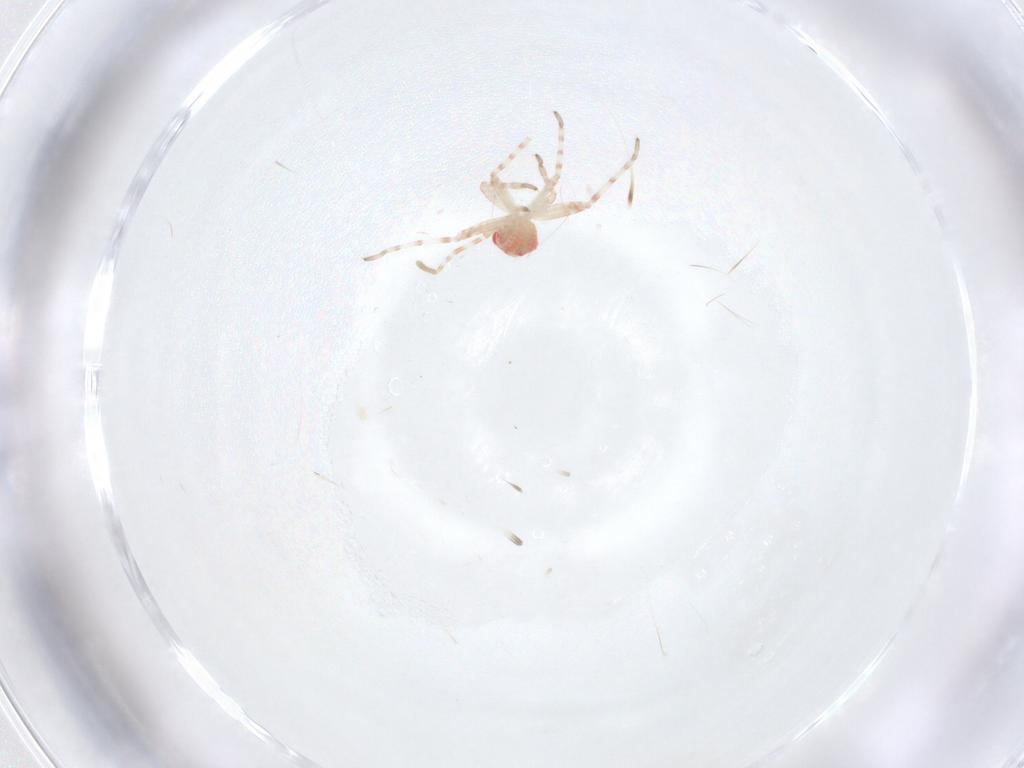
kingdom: Animalia
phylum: Arthropoda
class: Insecta
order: Hemiptera
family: Miridae
